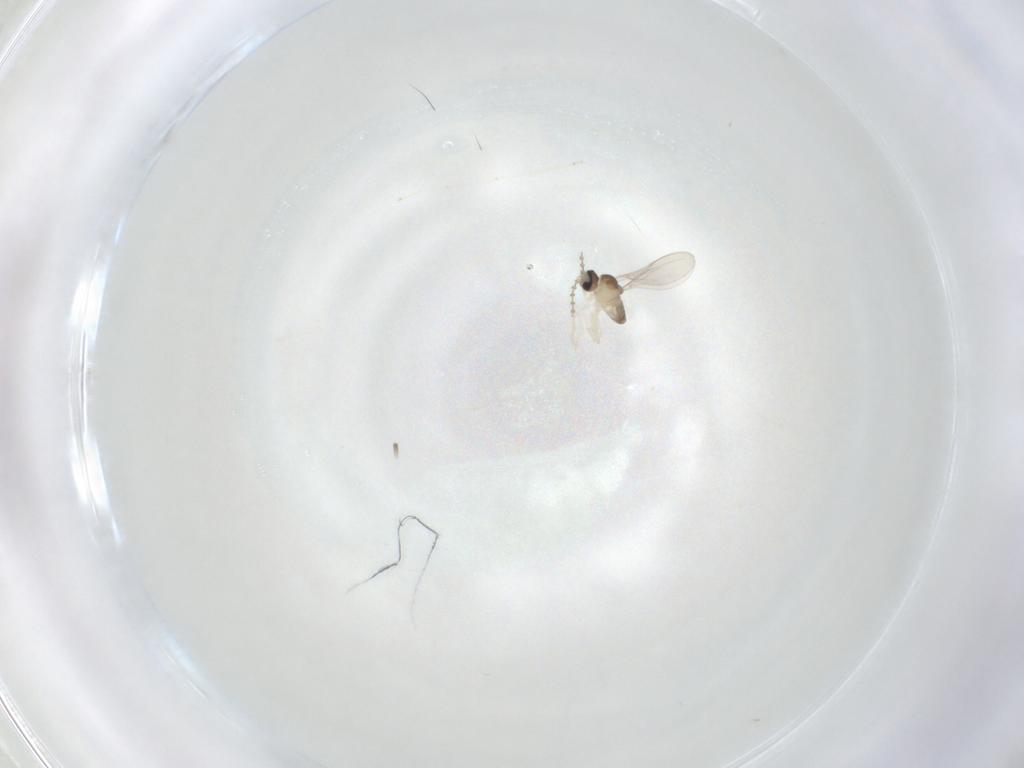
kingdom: Animalia
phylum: Arthropoda
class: Insecta
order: Diptera
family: Cecidomyiidae
